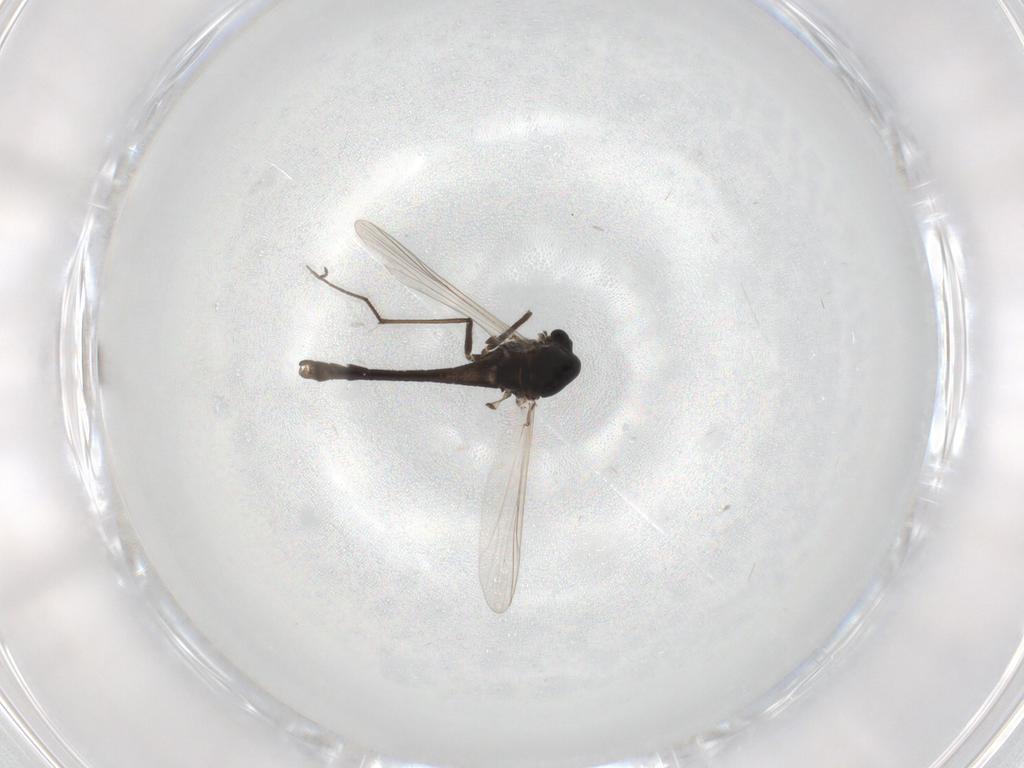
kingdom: Animalia
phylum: Arthropoda
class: Insecta
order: Diptera
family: Chironomidae
